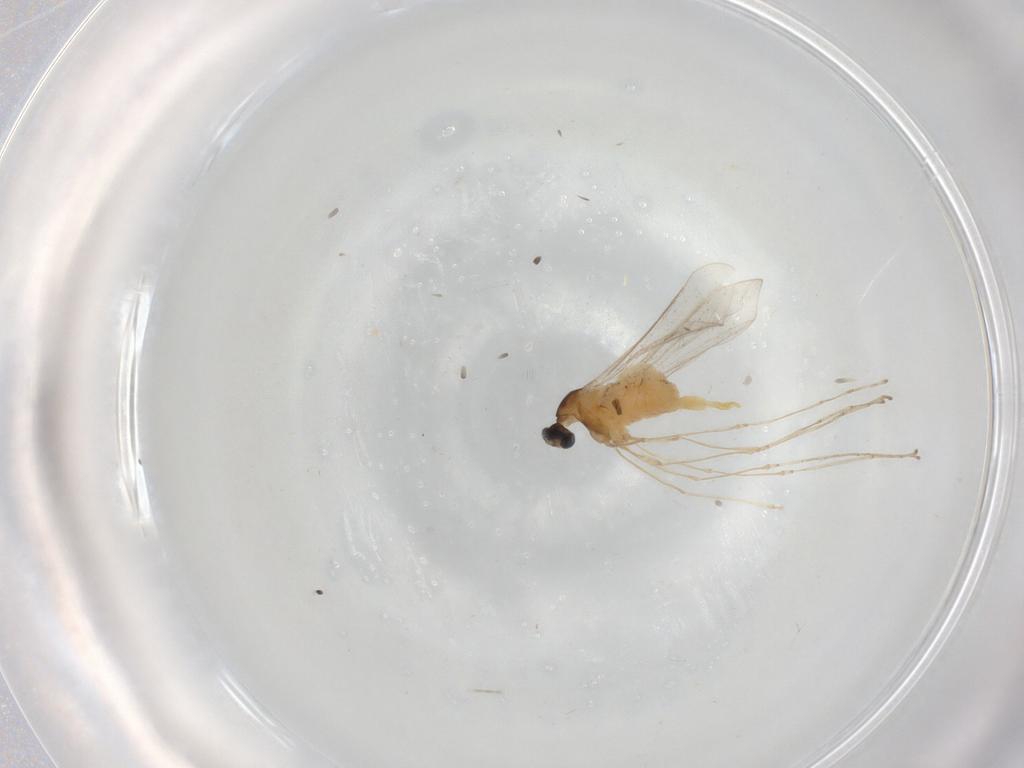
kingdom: Animalia
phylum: Arthropoda
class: Insecta
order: Diptera
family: Cecidomyiidae
